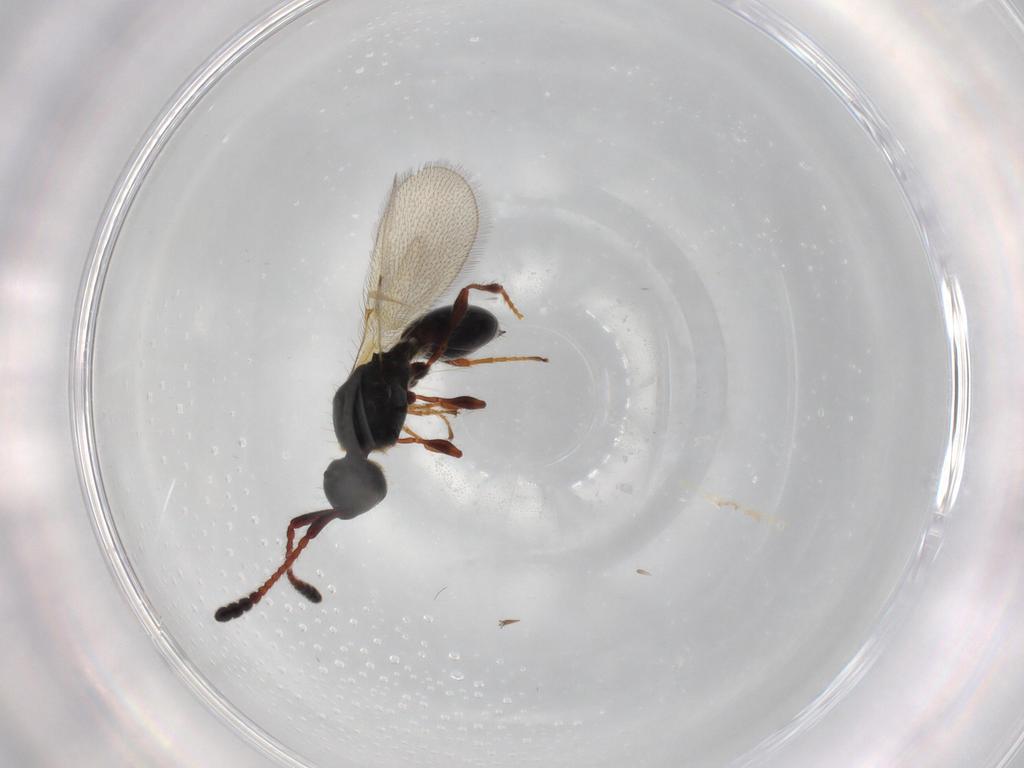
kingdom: Animalia
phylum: Arthropoda
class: Insecta
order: Hymenoptera
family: Diapriidae
